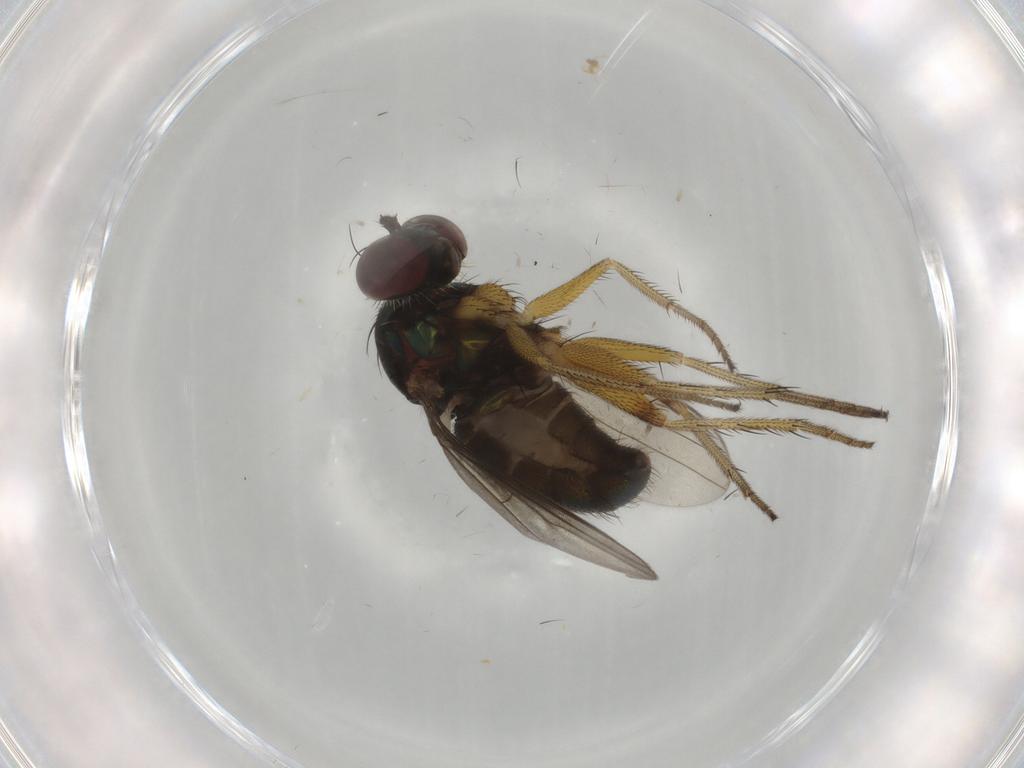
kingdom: Animalia
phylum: Arthropoda
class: Insecta
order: Diptera
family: Dolichopodidae
